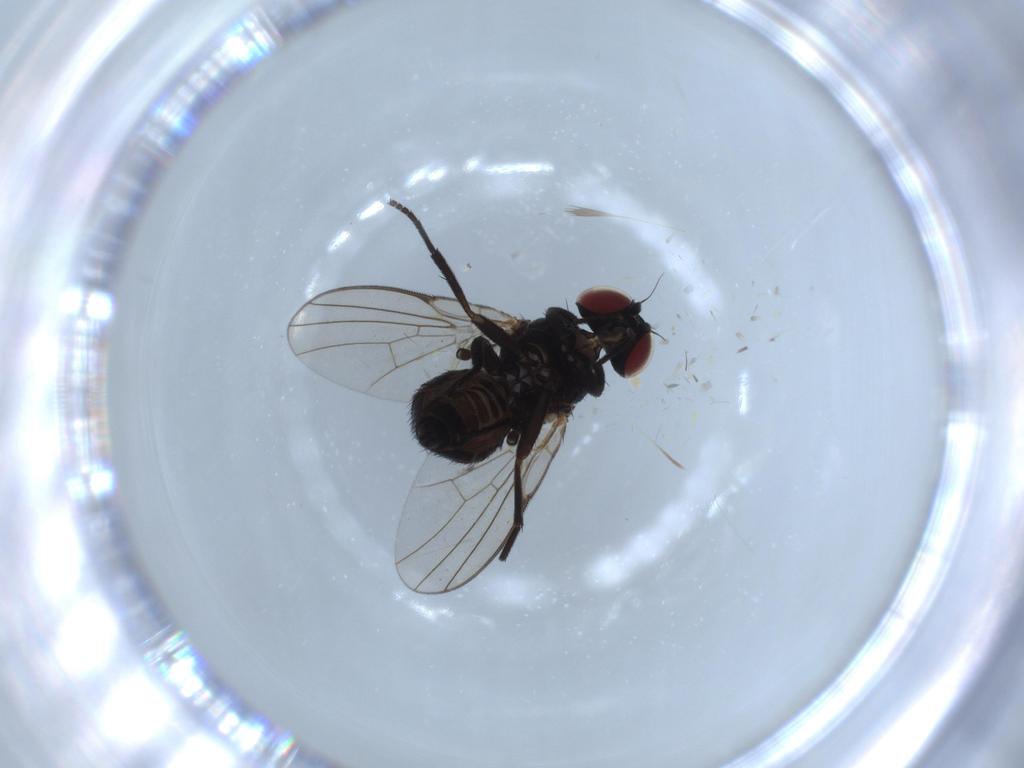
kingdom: Animalia
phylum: Arthropoda
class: Insecta
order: Diptera
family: Agromyzidae
